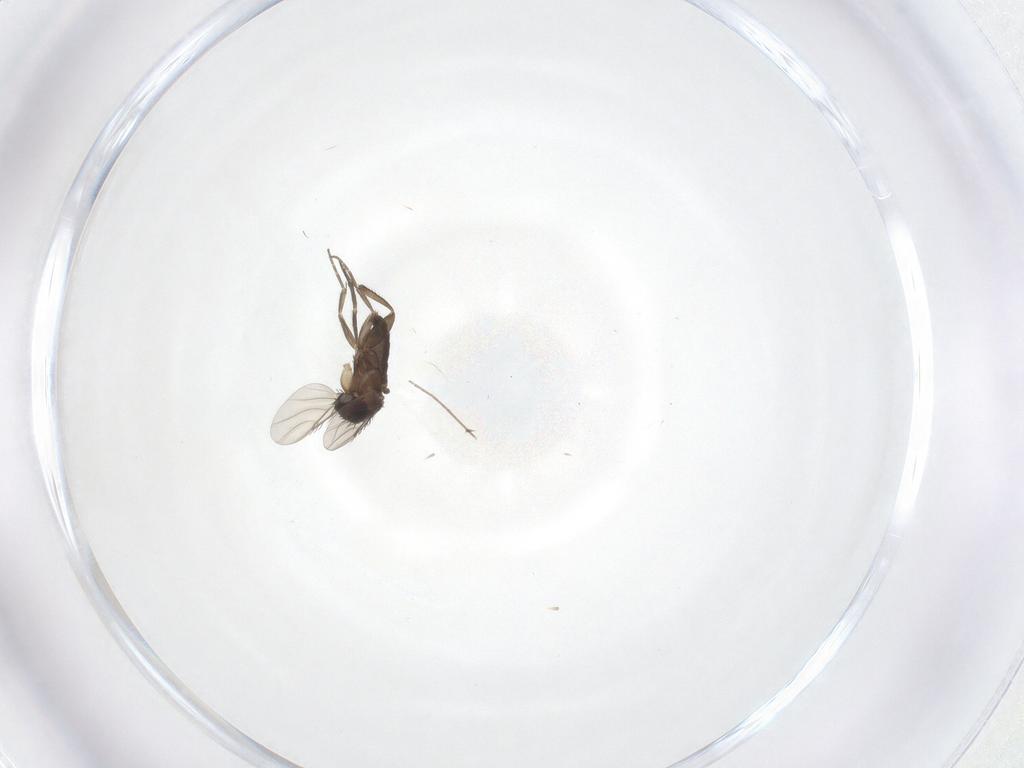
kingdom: Animalia
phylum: Arthropoda
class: Insecta
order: Diptera
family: Phoridae
